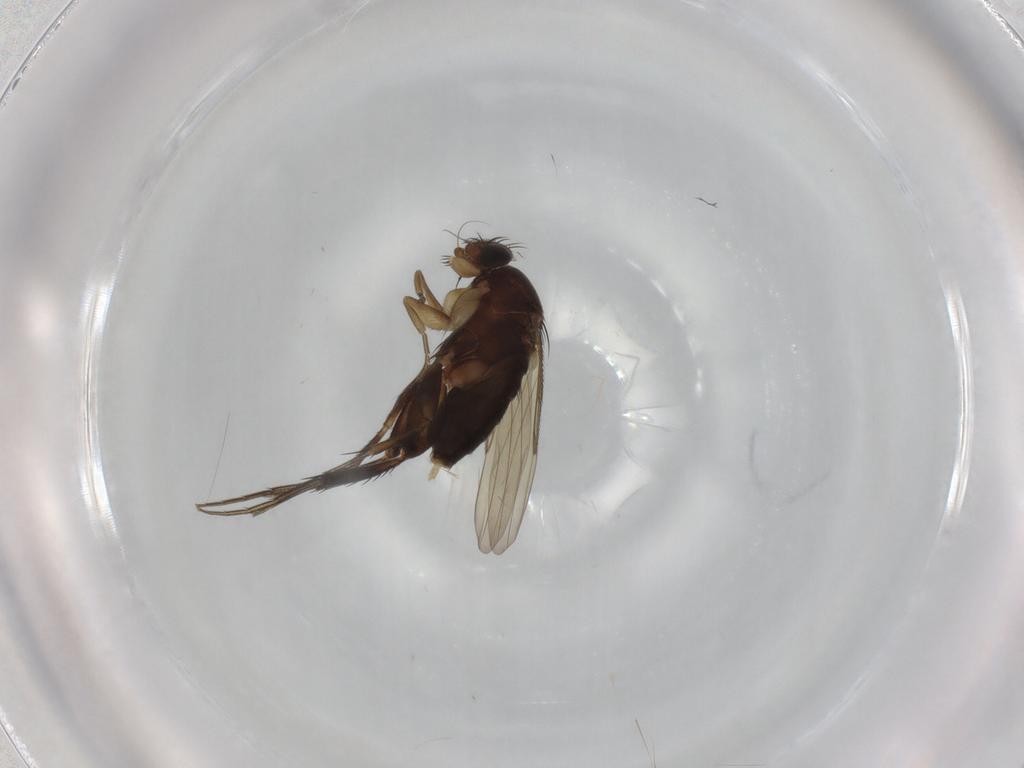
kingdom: Animalia
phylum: Arthropoda
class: Insecta
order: Diptera
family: Phoridae
